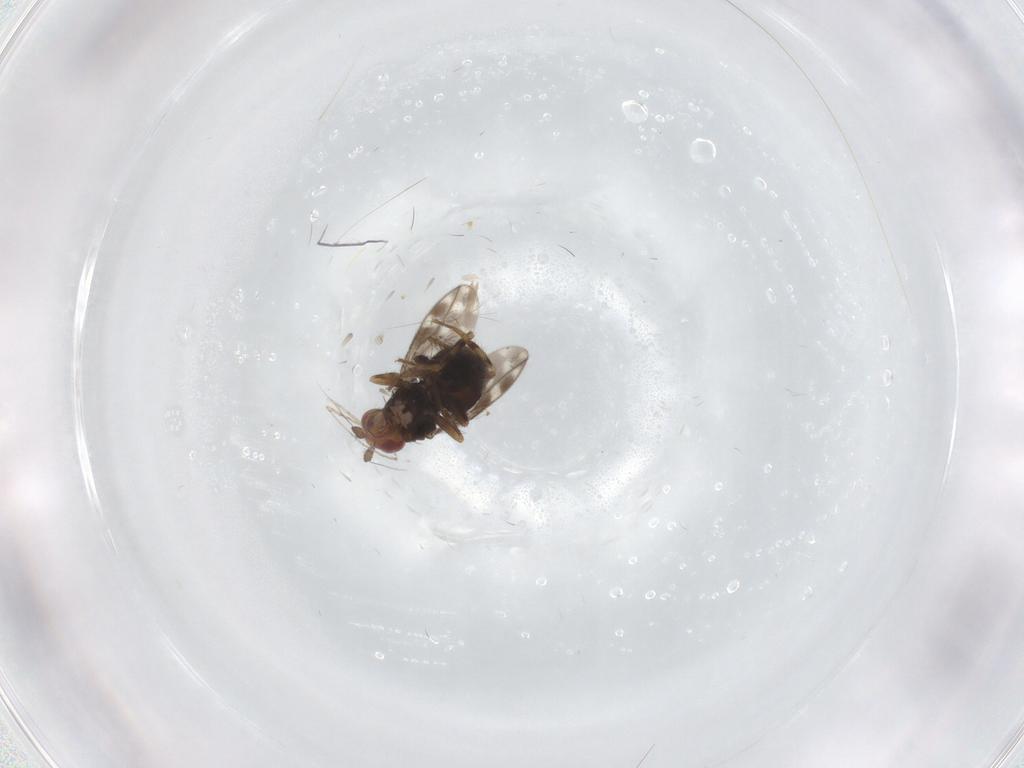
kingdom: Animalia
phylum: Arthropoda
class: Insecta
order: Diptera
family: Sphaeroceridae
